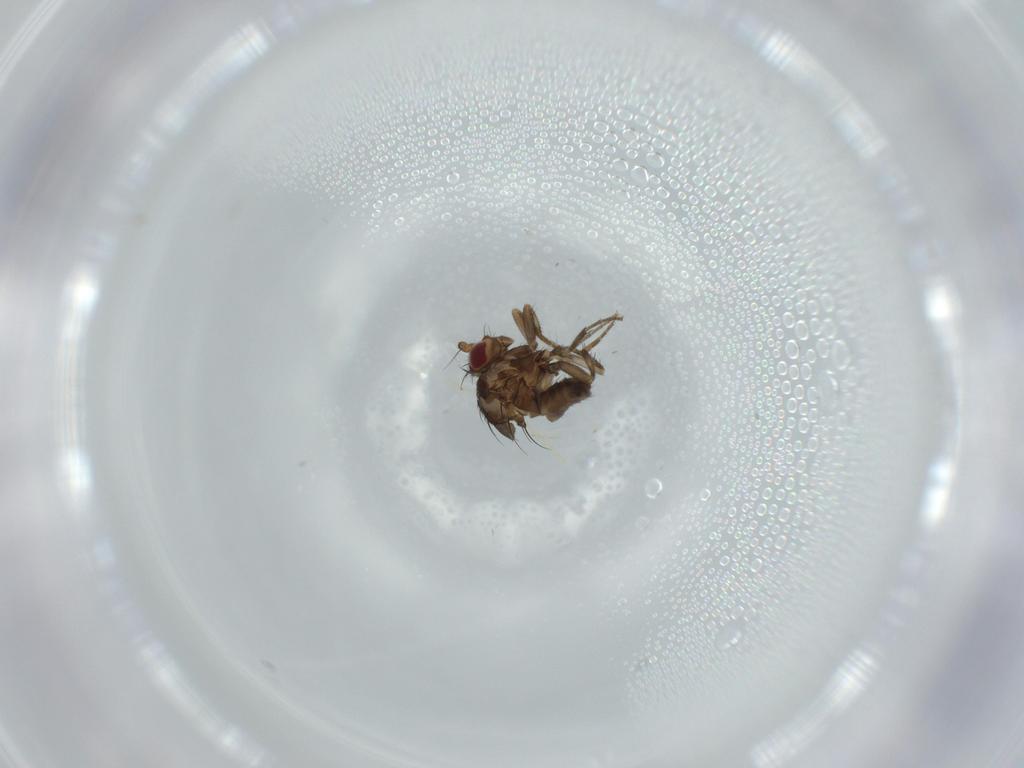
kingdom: Animalia
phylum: Arthropoda
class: Insecta
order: Diptera
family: Sphaeroceridae
